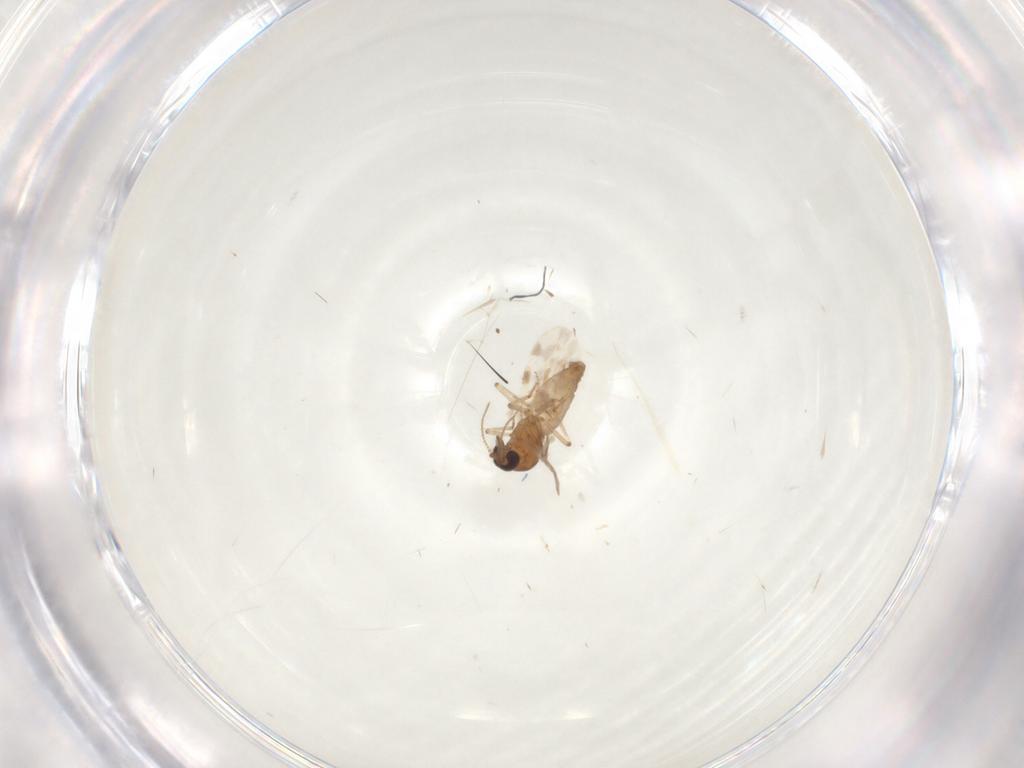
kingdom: Animalia
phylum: Arthropoda
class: Insecta
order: Diptera
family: Ceratopogonidae
